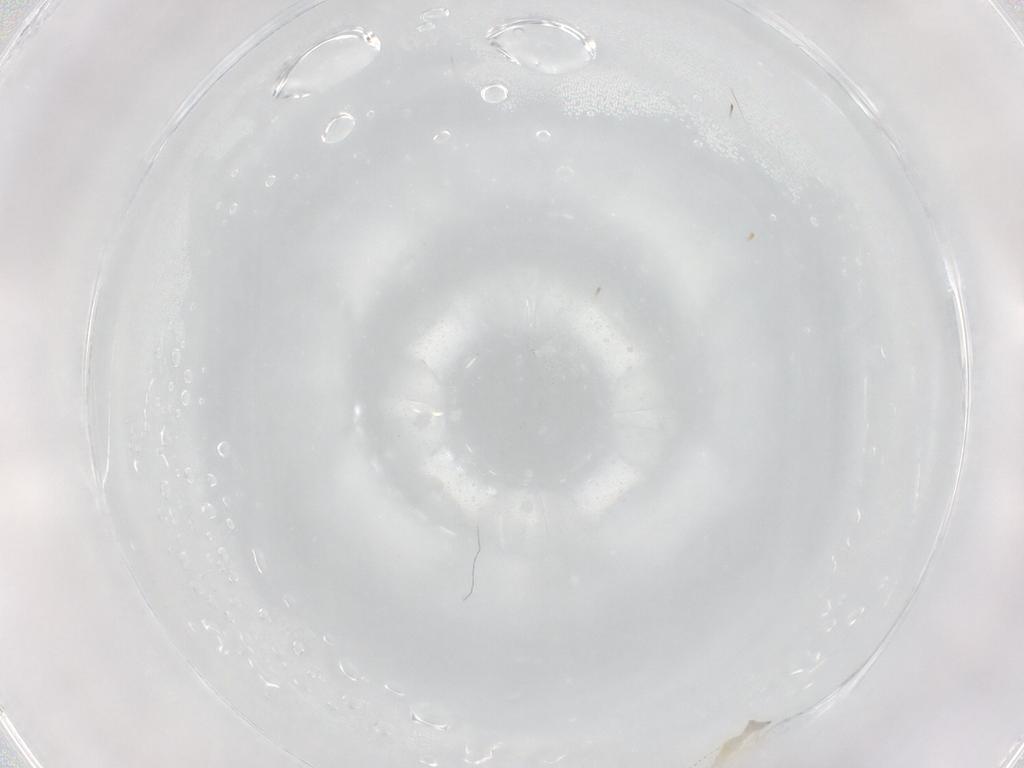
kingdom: Animalia
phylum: Arthropoda
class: Insecta
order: Diptera
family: Cecidomyiidae
